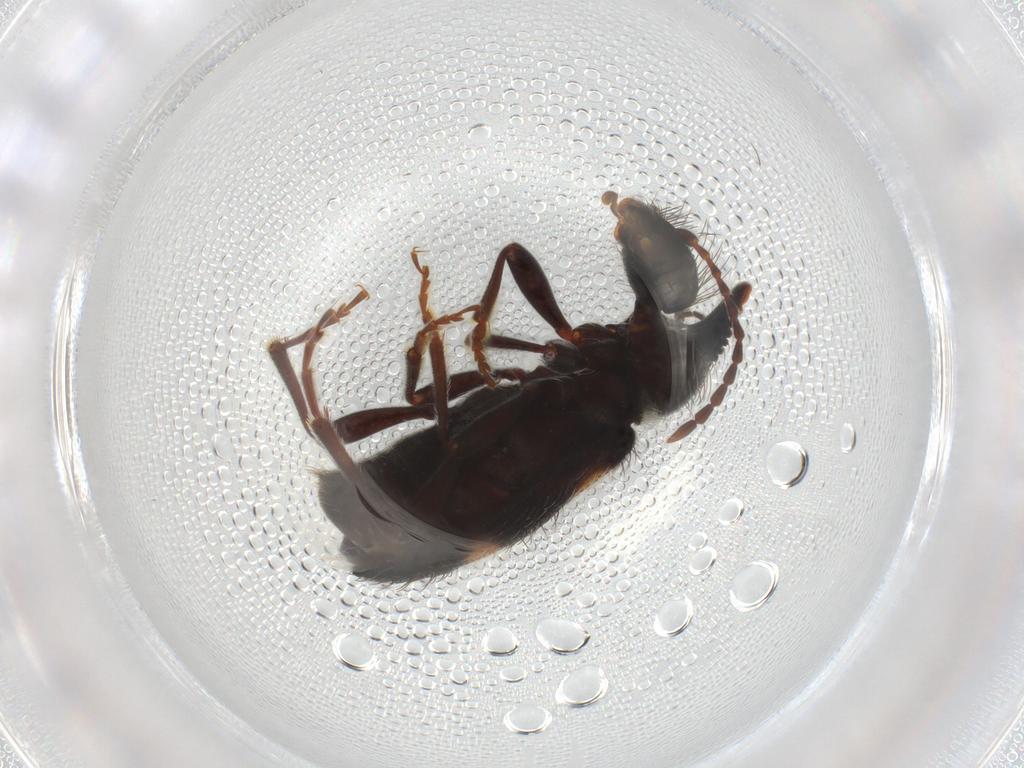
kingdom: Animalia
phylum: Arthropoda
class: Insecta
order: Coleoptera
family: Anthicidae
